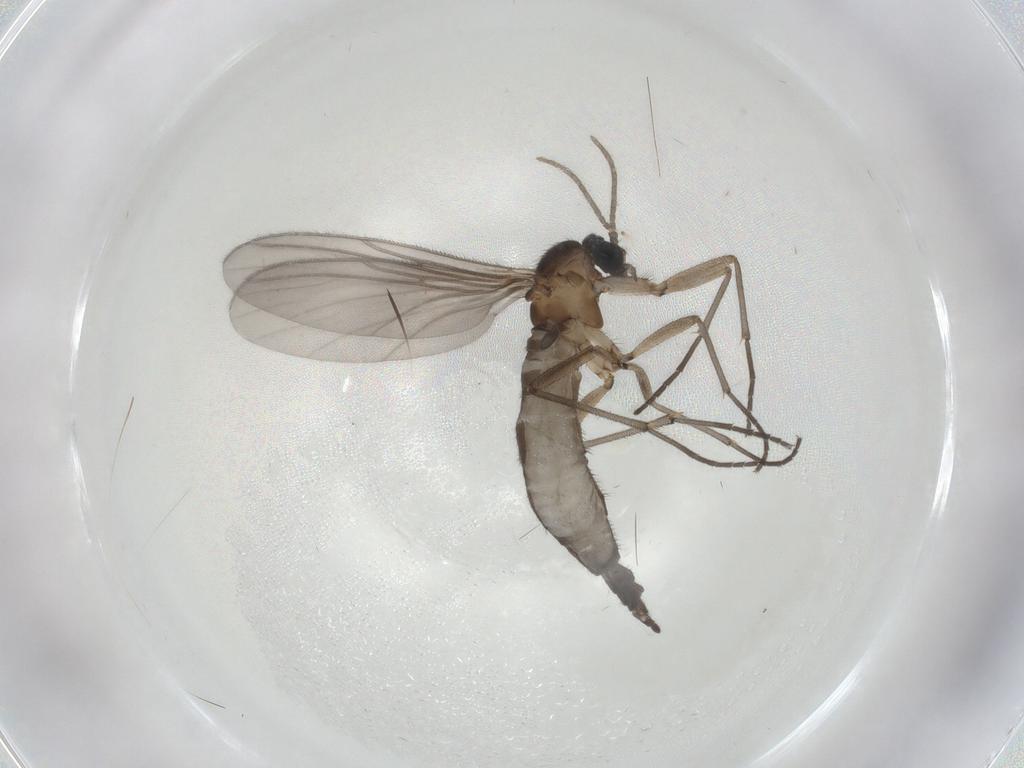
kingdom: Animalia
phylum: Arthropoda
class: Insecta
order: Diptera
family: Chironomidae
